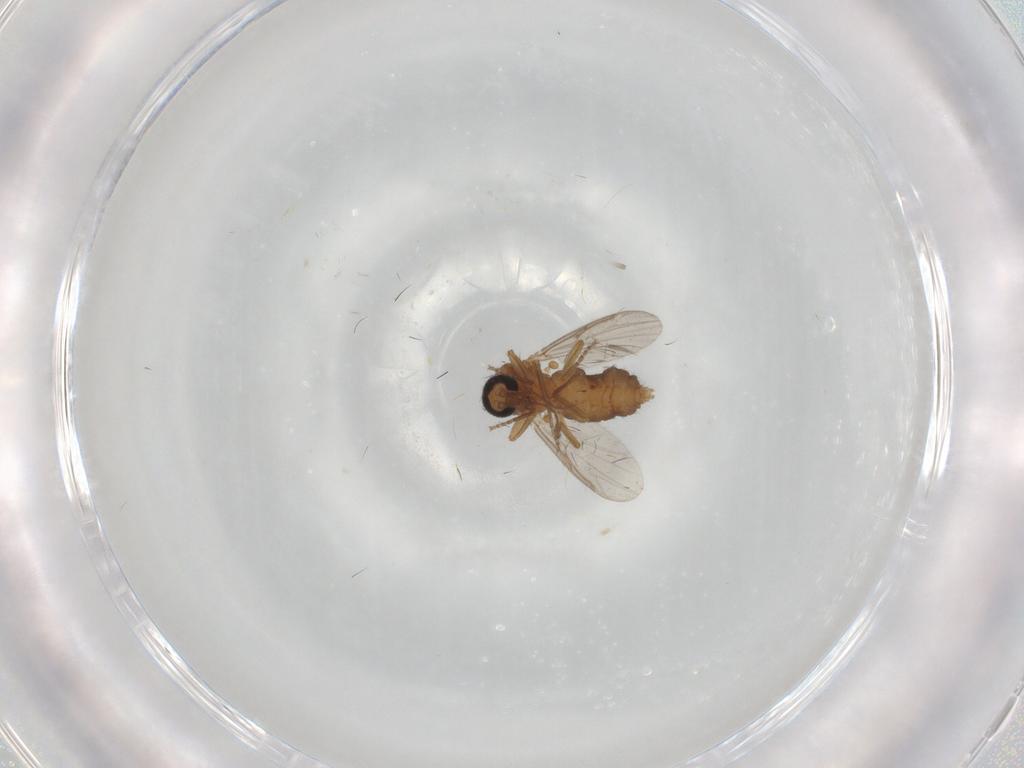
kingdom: Animalia
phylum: Arthropoda
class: Insecta
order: Diptera
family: Ceratopogonidae
